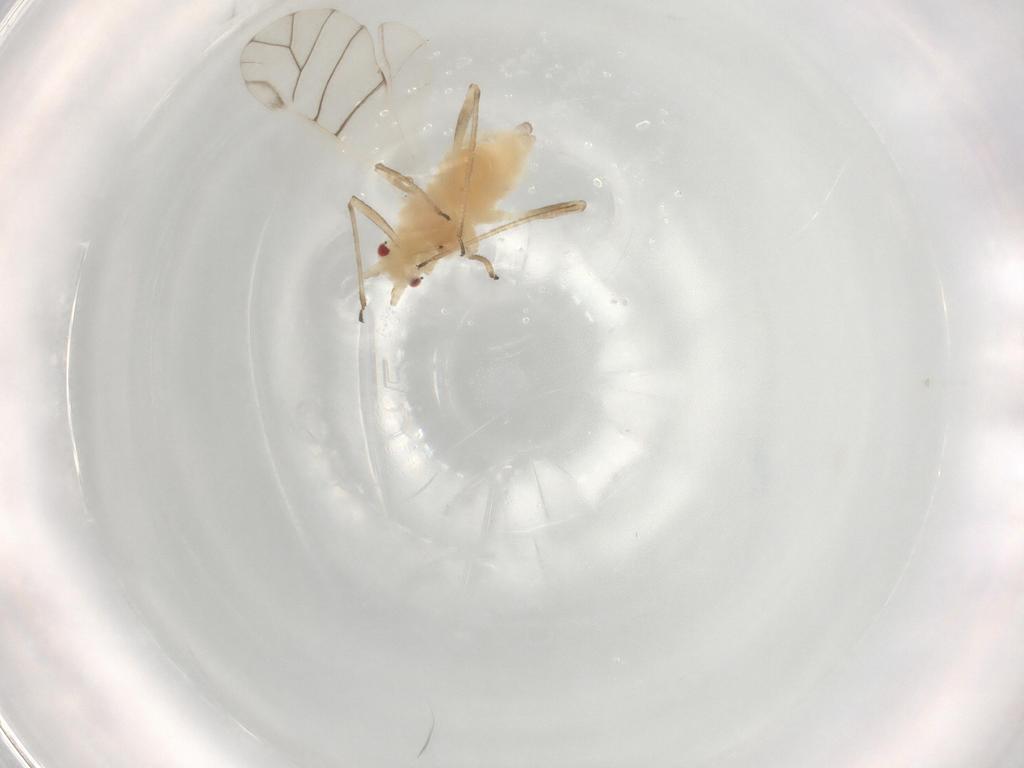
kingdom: Animalia
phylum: Arthropoda
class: Insecta
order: Hemiptera
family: Aphididae
